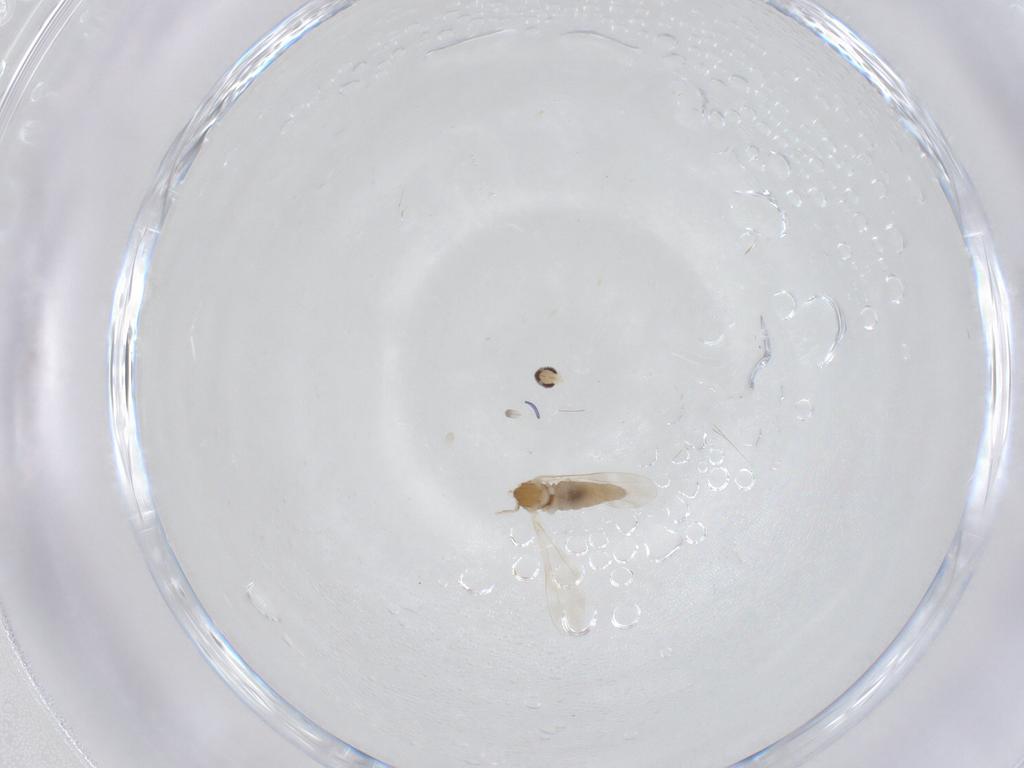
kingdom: Animalia
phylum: Arthropoda
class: Insecta
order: Diptera
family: Cecidomyiidae
